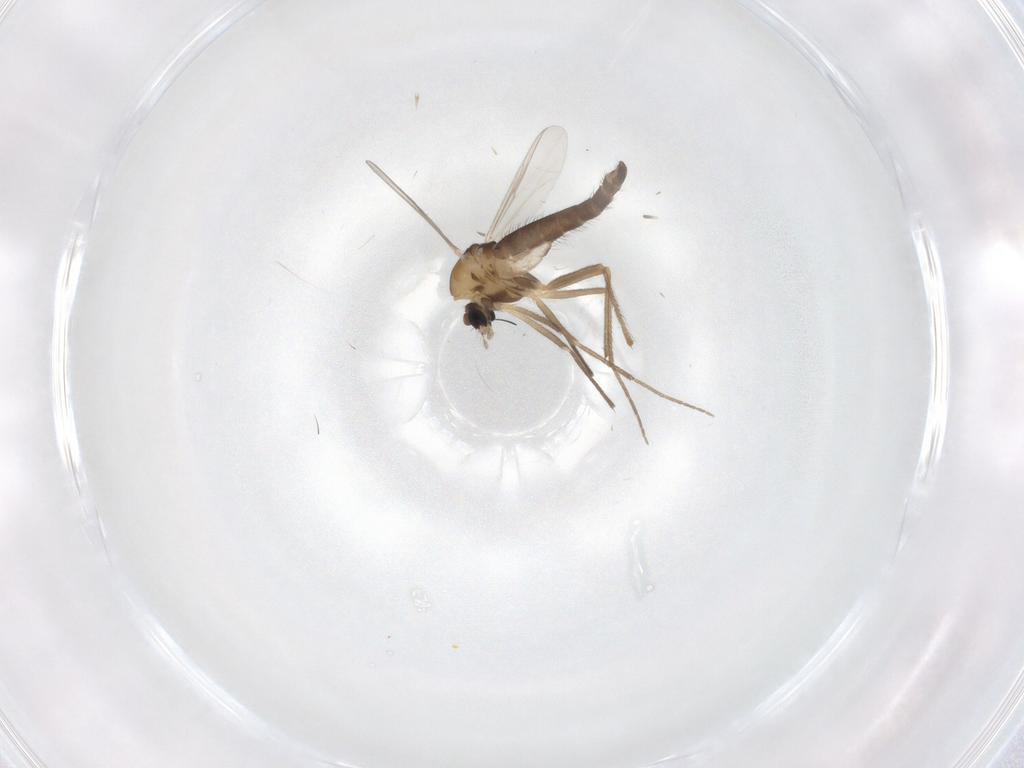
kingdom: Animalia
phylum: Arthropoda
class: Insecta
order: Diptera
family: Chironomidae
